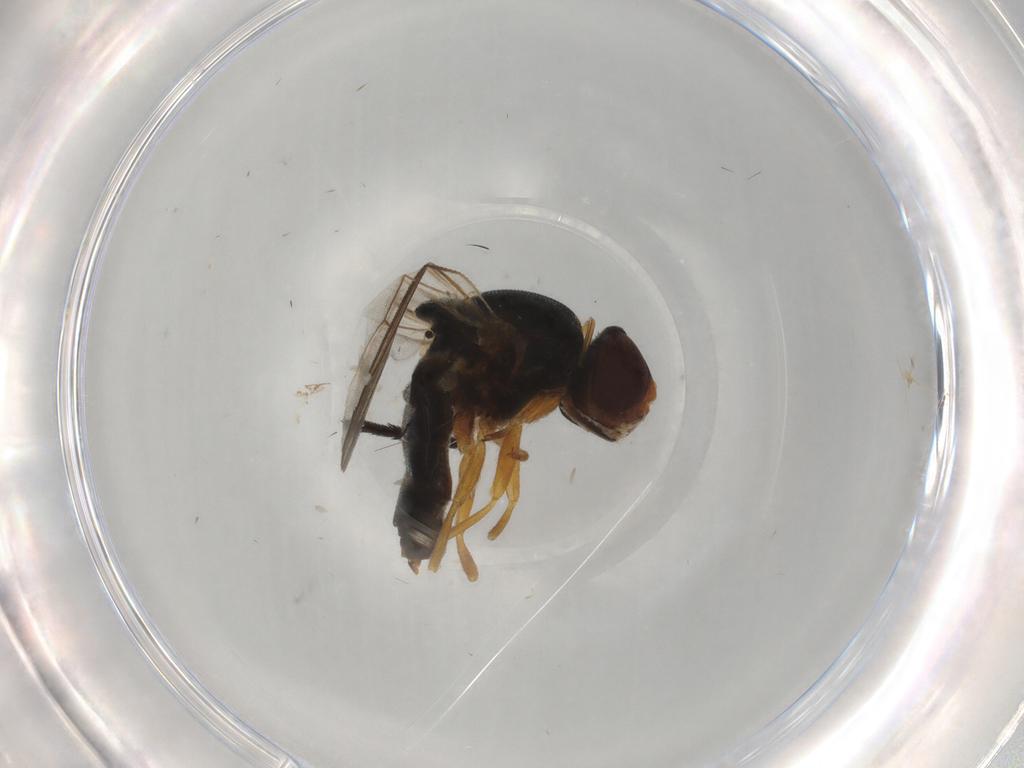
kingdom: Animalia
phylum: Arthropoda
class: Insecta
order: Diptera
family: Chloropidae
